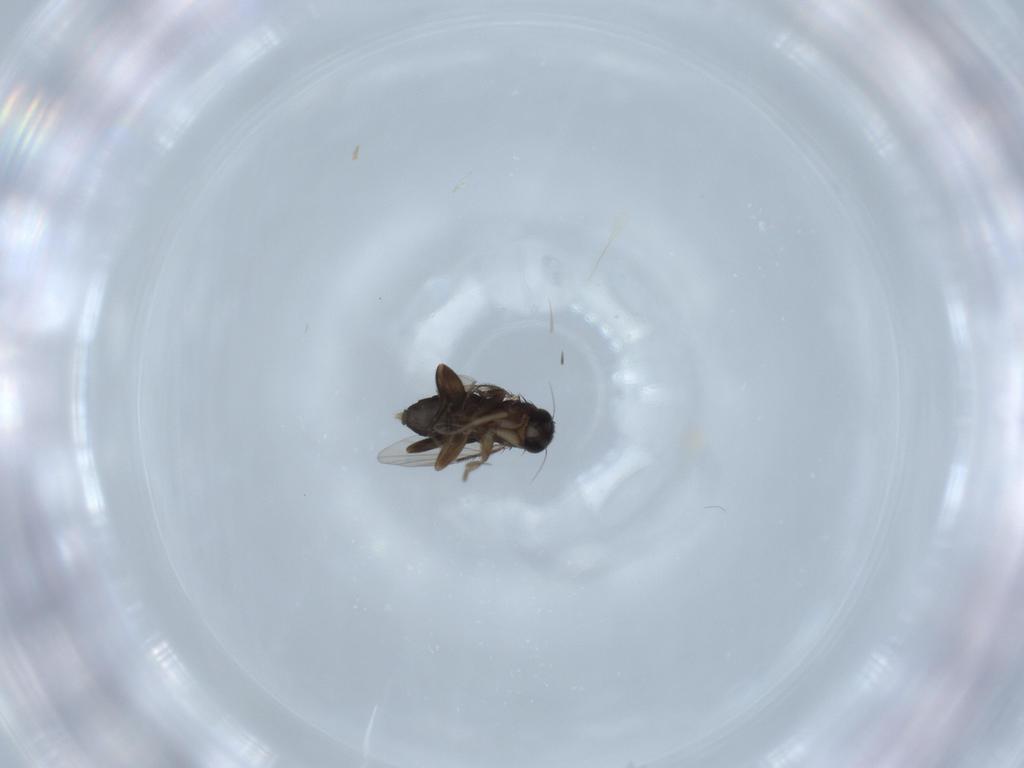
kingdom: Animalia
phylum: Arthropoda
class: Insecta
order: Diptera
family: Phoridae
